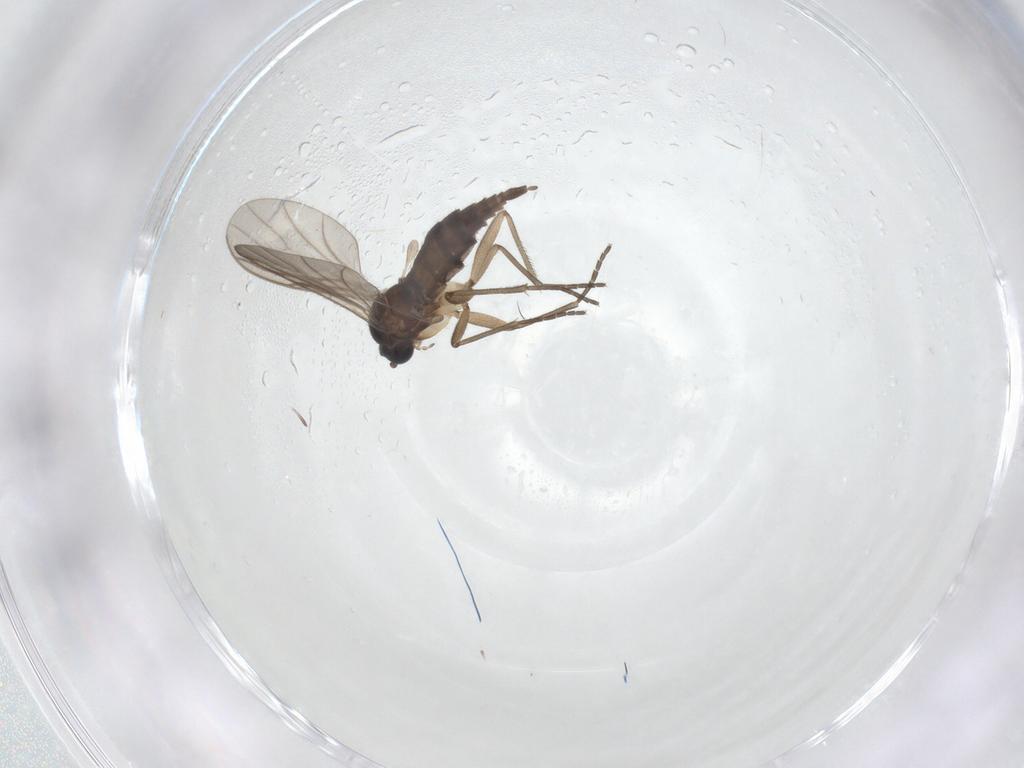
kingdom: Animalia
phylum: Arthropoda
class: Insecta
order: Diptera
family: Sciaridae
